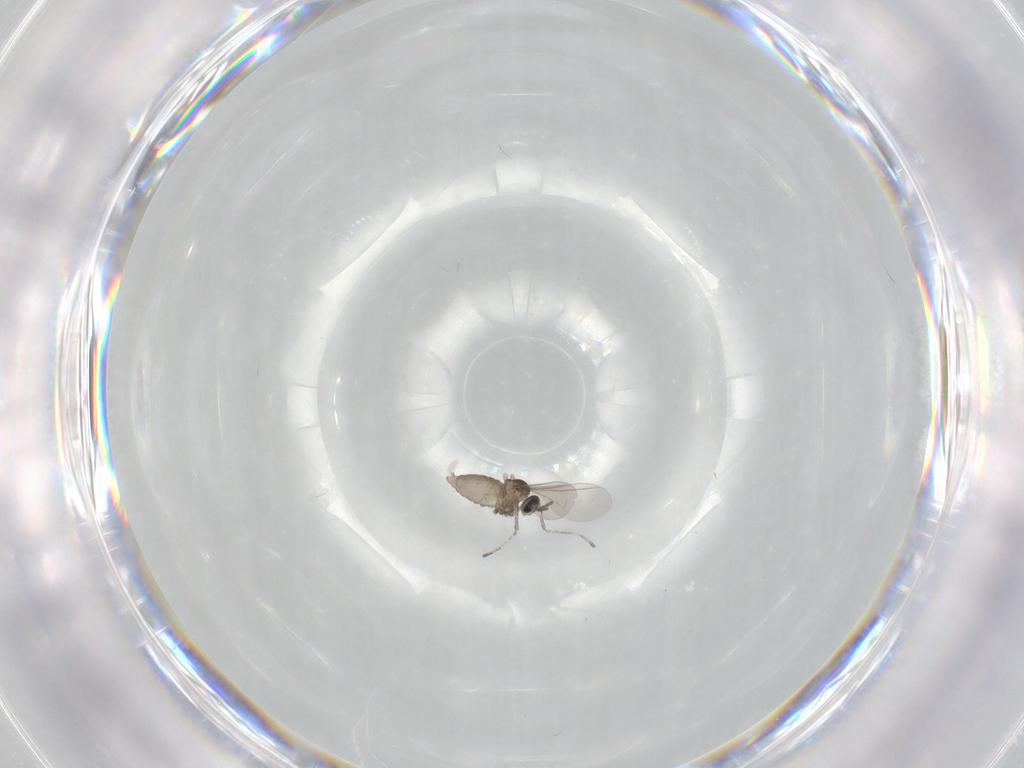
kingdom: Animalia
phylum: Arthropoda
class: Insecta
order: Diptera
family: Cecidomyiidae
